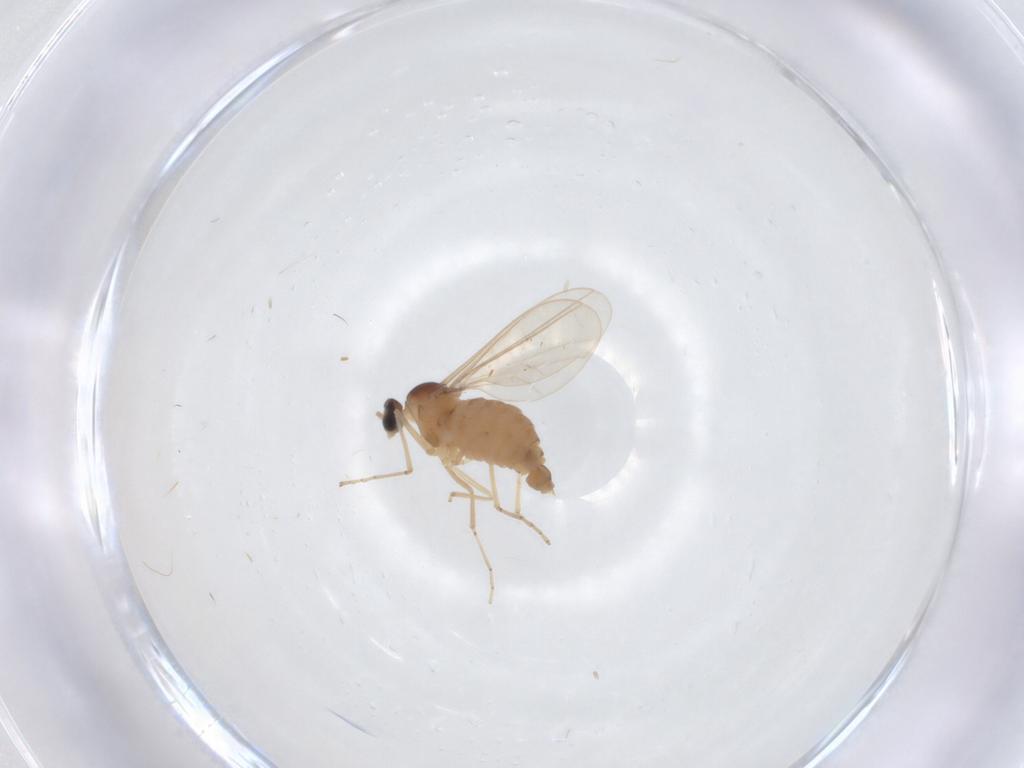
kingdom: Animalia
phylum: Arthropoda
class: Insecta
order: Diptera
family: Cecidomyiidae
